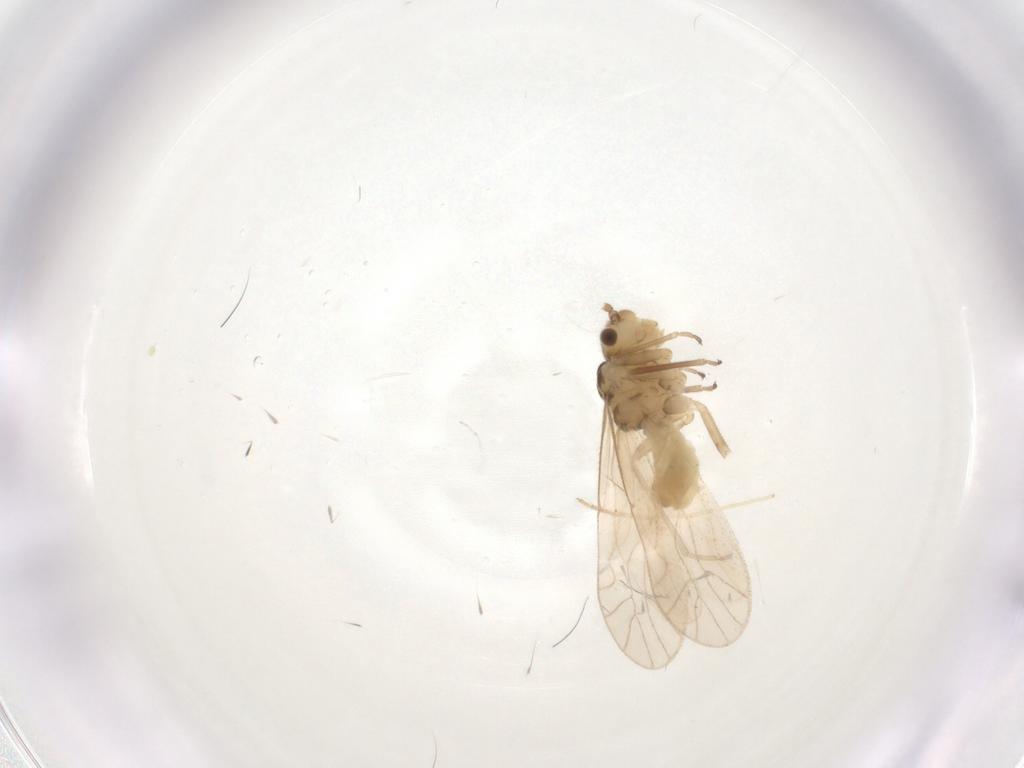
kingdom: Animalia
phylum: Arthropoda
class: Insecta
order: Psocodea
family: Caeciliusidae
